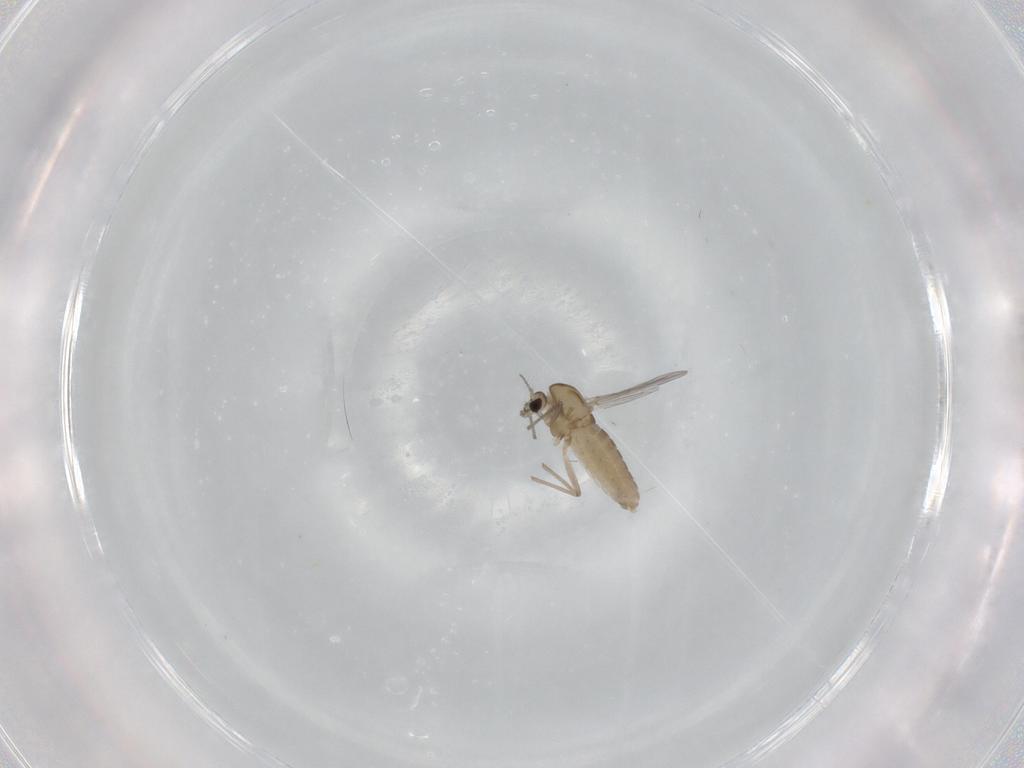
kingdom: Animalia
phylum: Arthropoda
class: Insecta
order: Diptera
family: Chironomidae
